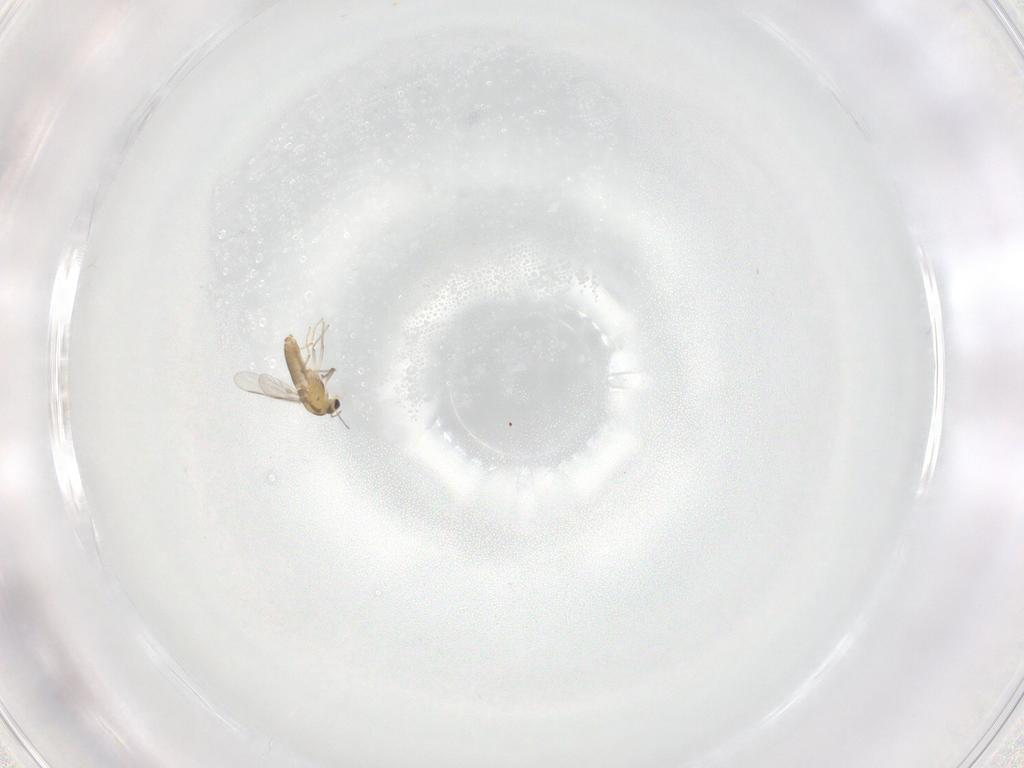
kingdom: Animalia
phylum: Arthropoda
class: Insecta
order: Diptera
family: Chironomidae
